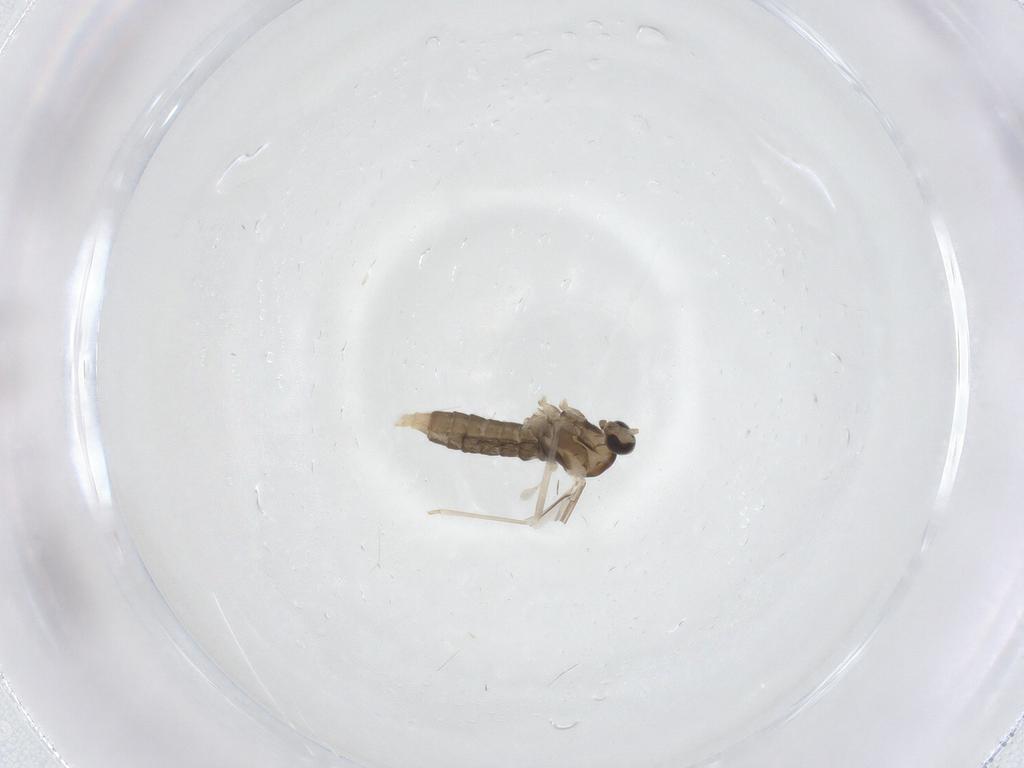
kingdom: Animalia
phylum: Arthropoda
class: Insecta
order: Diptera
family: Cecidomyiidae
